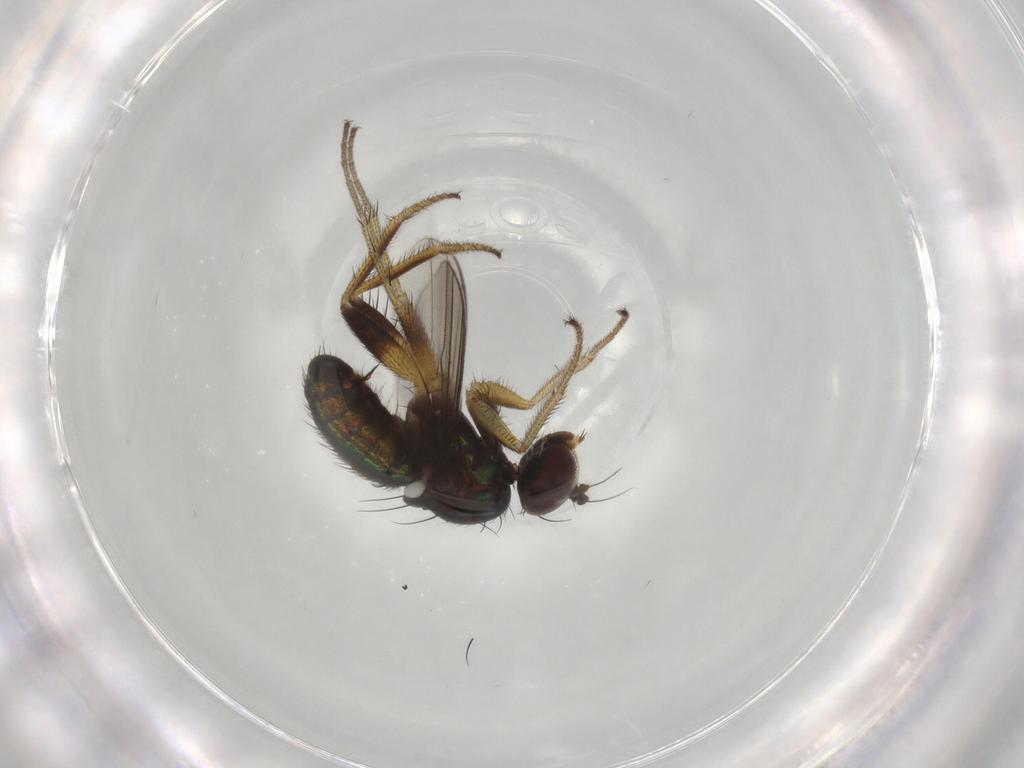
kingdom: Animalia
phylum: Arthropoda
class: Insecta
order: Diptera
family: Dolichopodidae
